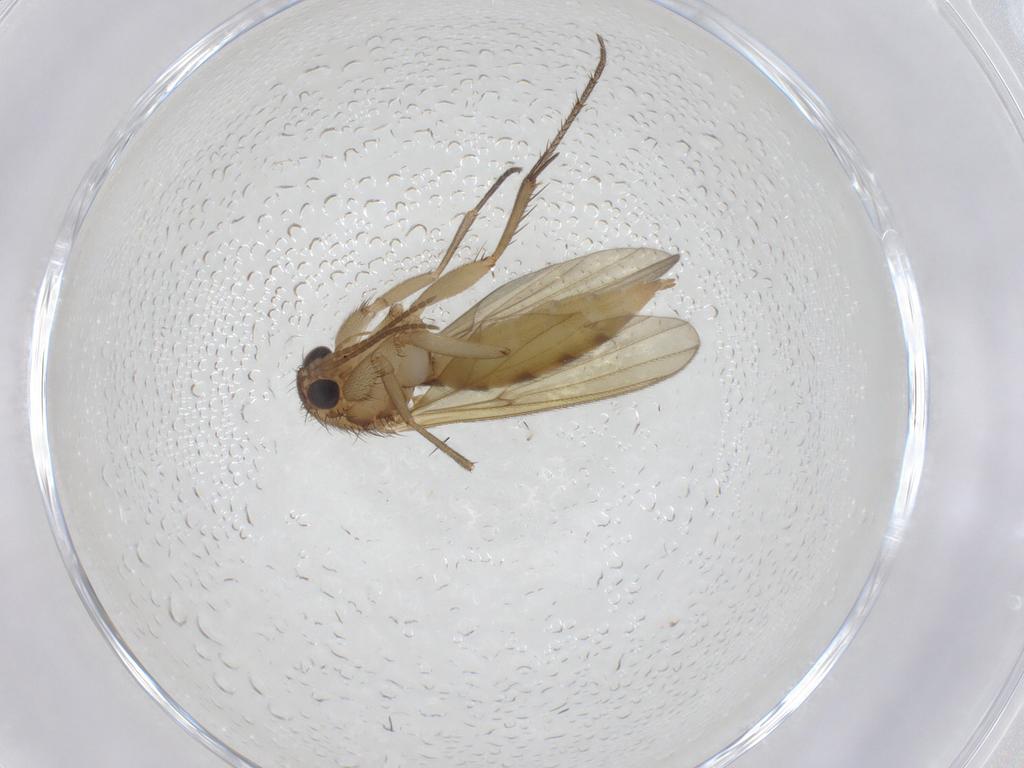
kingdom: Animalia
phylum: Arthropoda
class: Insecta
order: Diptera
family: Mycetophilidae
